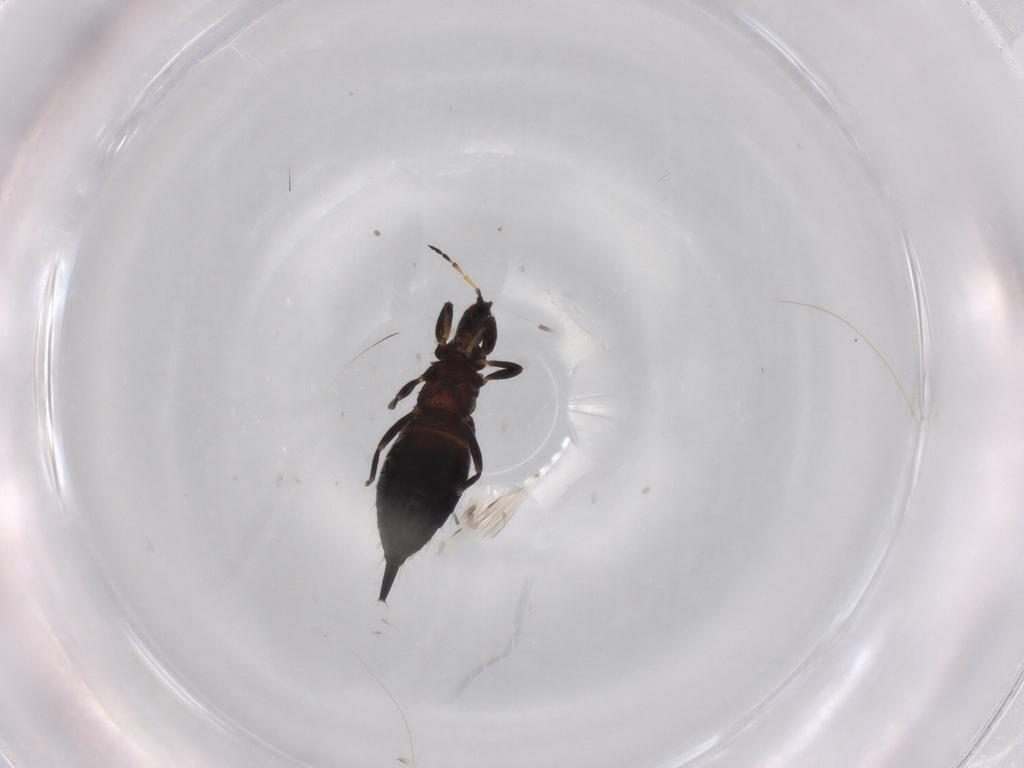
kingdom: Animalia
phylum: Arthropoda
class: Insecta
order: Thysanoptera
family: Phlaeothripidae
